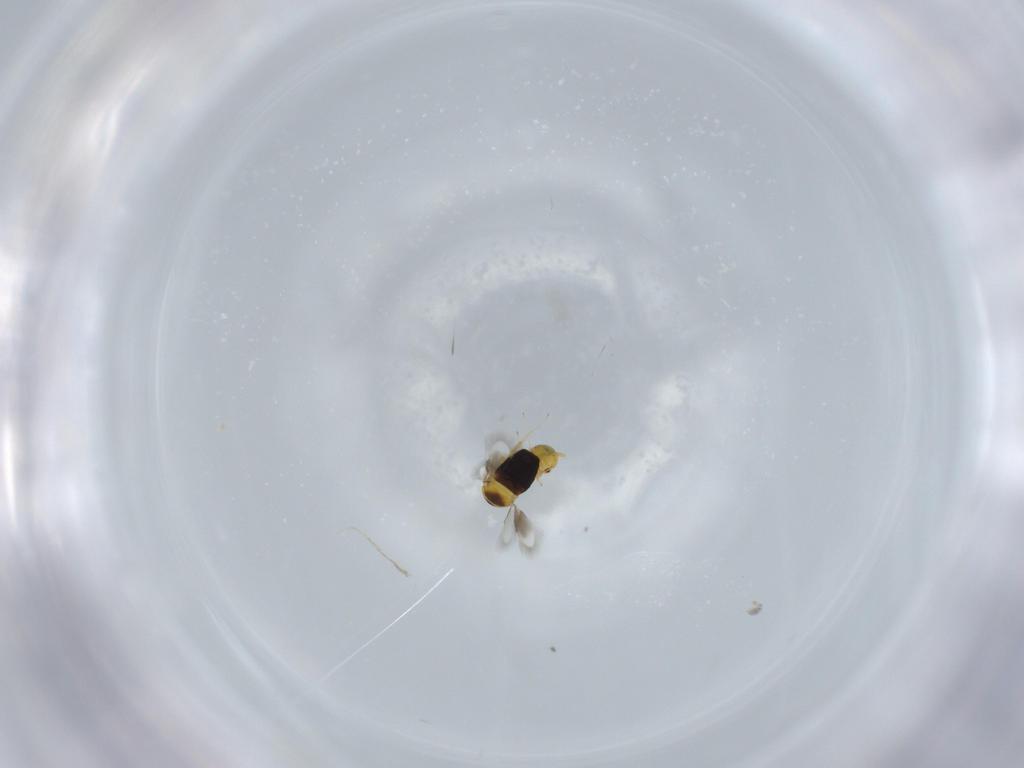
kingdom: Animalia
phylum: Arthropoda
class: Insecta
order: Hymenoptera
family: Signiphoridae
